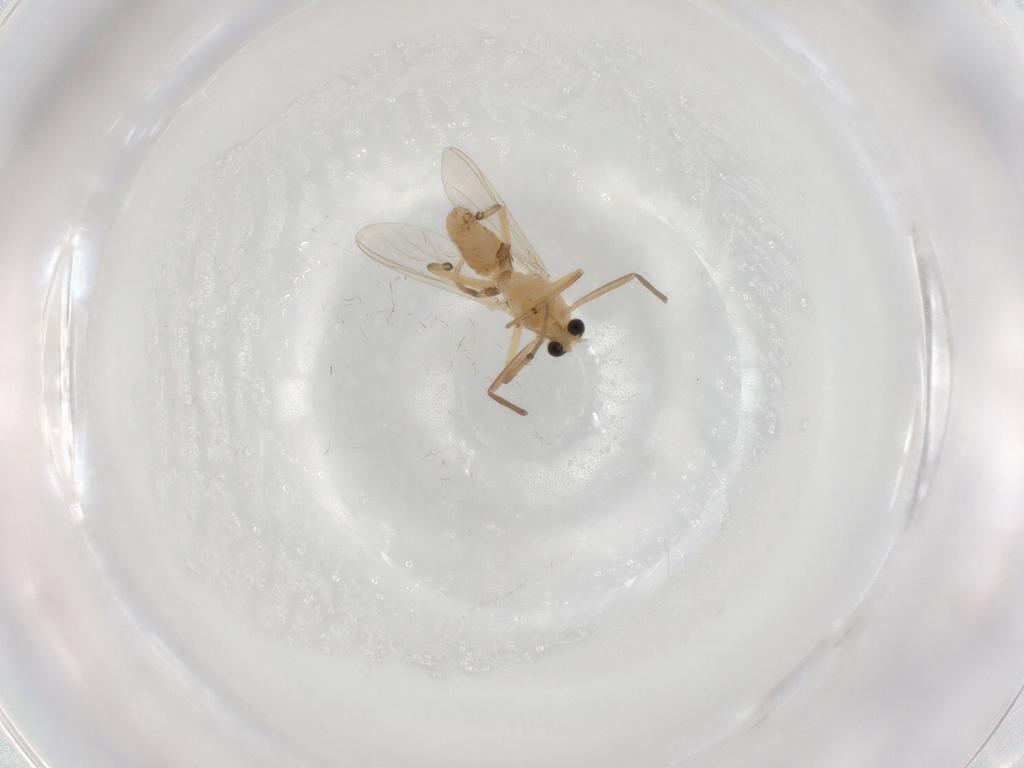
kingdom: Animalia
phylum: Arthropoda
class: Insecta
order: Diptera
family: Chironomidae
